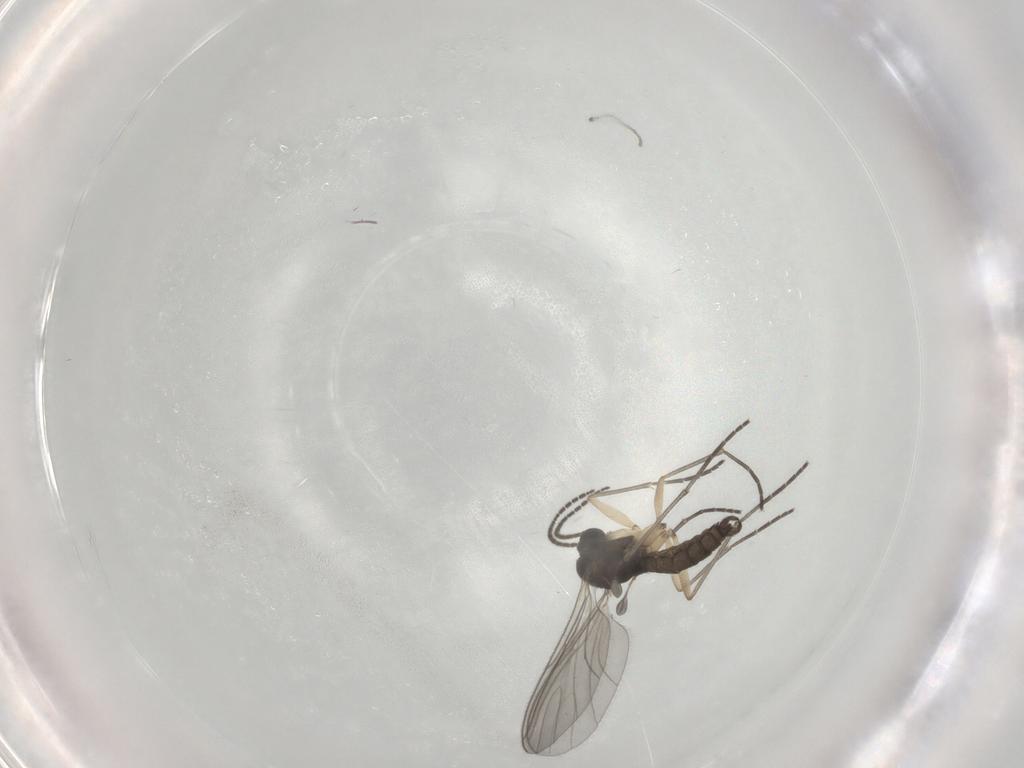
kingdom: Animalia
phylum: Arthropoda
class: Insecta
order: Diptera
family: Sciaridae
